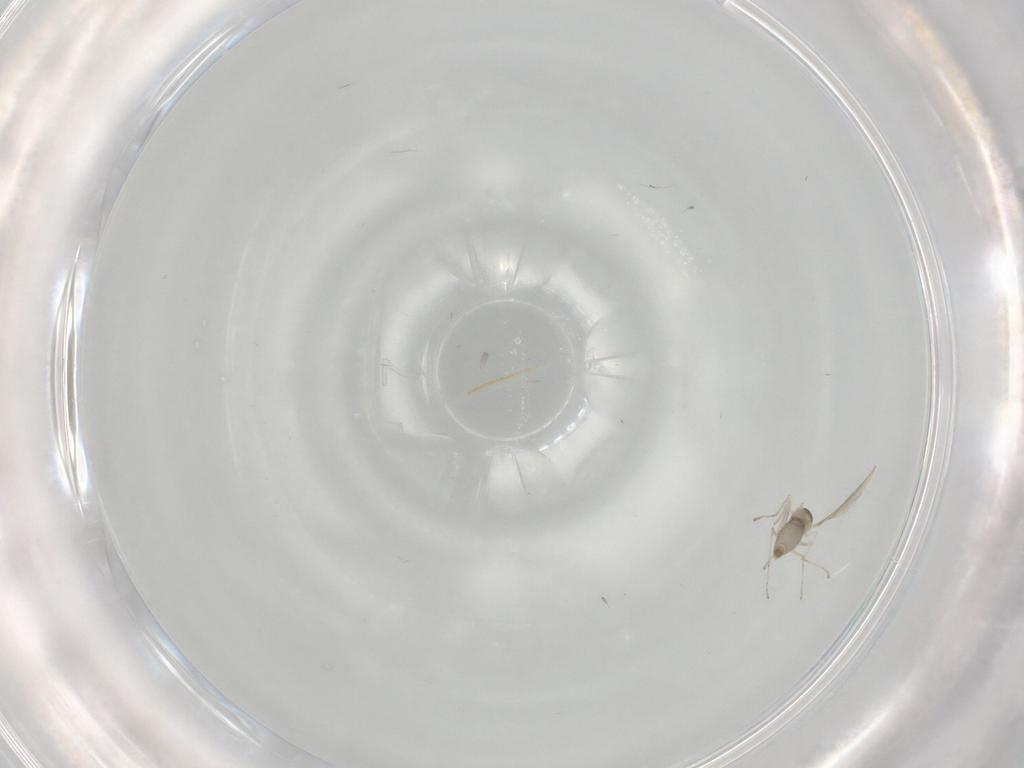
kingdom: Animalia
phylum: Arthropoda
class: Insecta
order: Diptera
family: Cecidomyiidae
